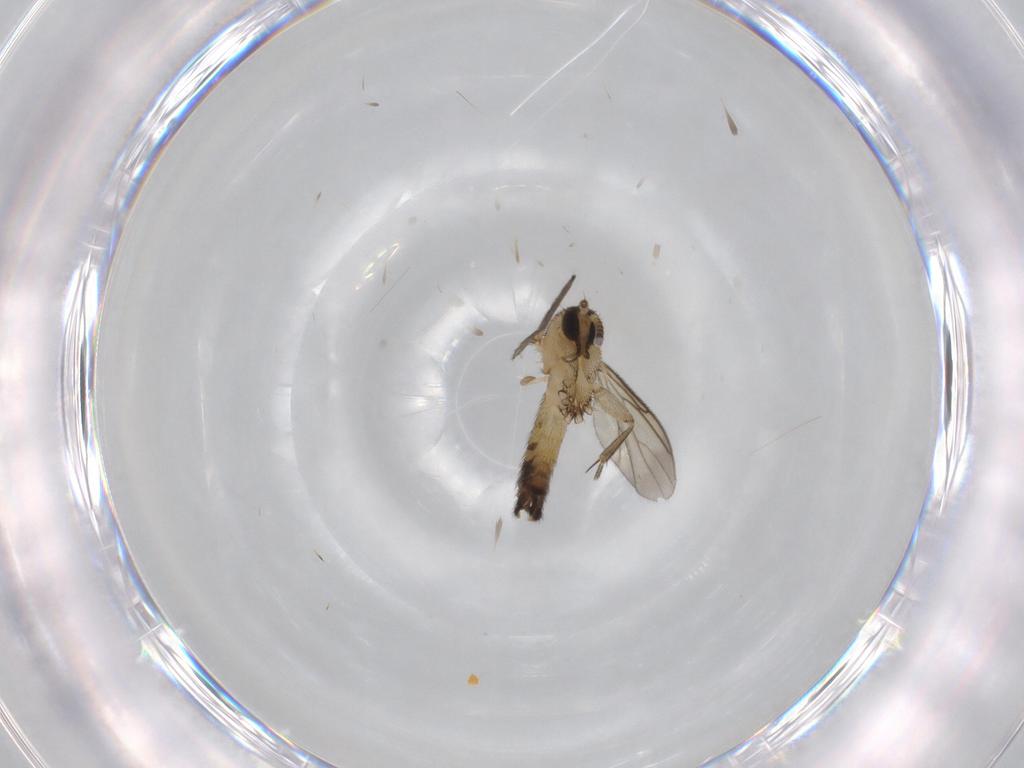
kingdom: Animalia
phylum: Arthropoda
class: Insecta
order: Diptera
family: Mycetophilidae
